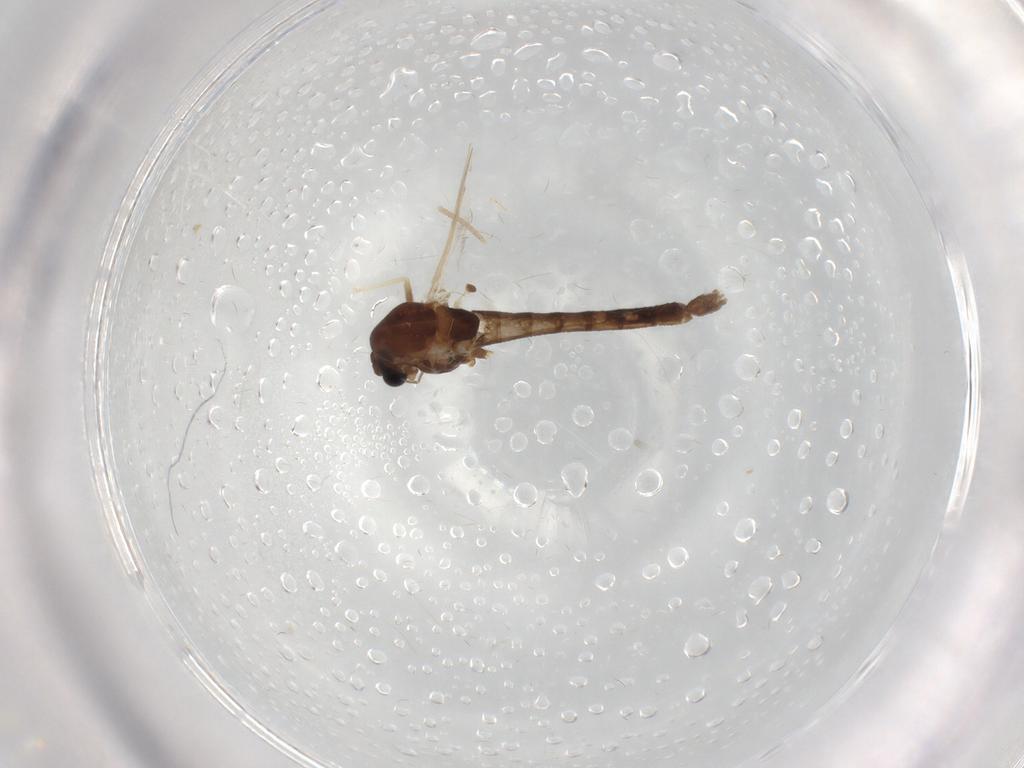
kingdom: Animalia
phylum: Arthropoda
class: Insecta
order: Diptera
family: Chironomidae
